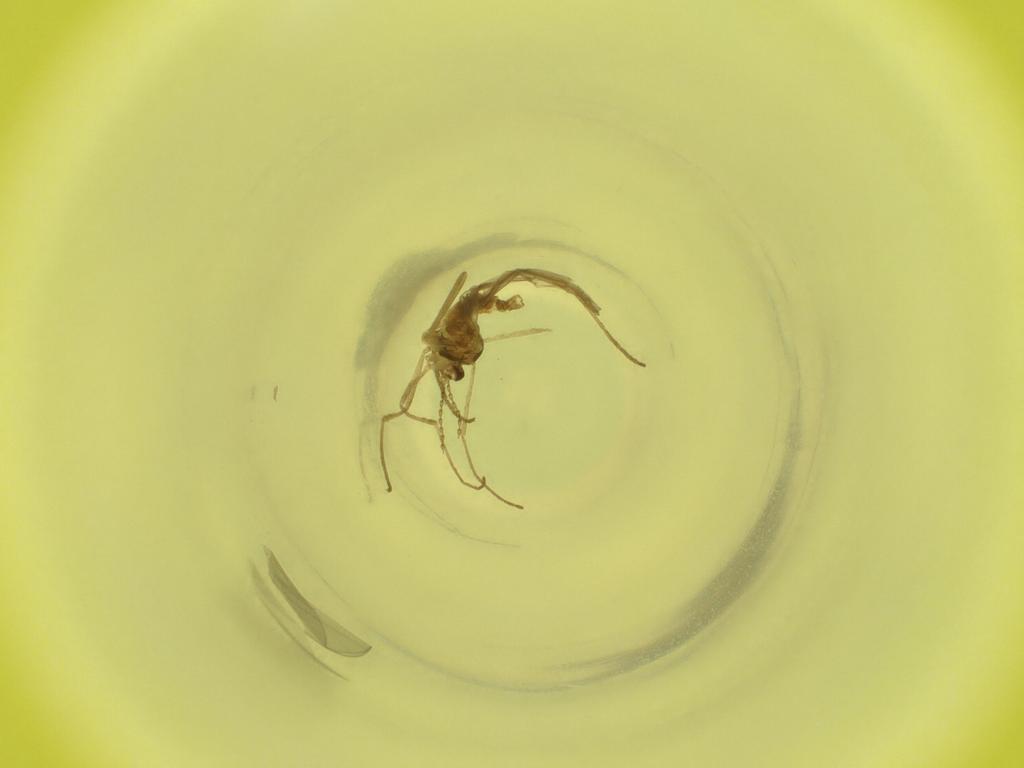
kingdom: Animalia
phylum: Arthropoda
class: Insecta
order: Diptera
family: Cecidomyiidae
